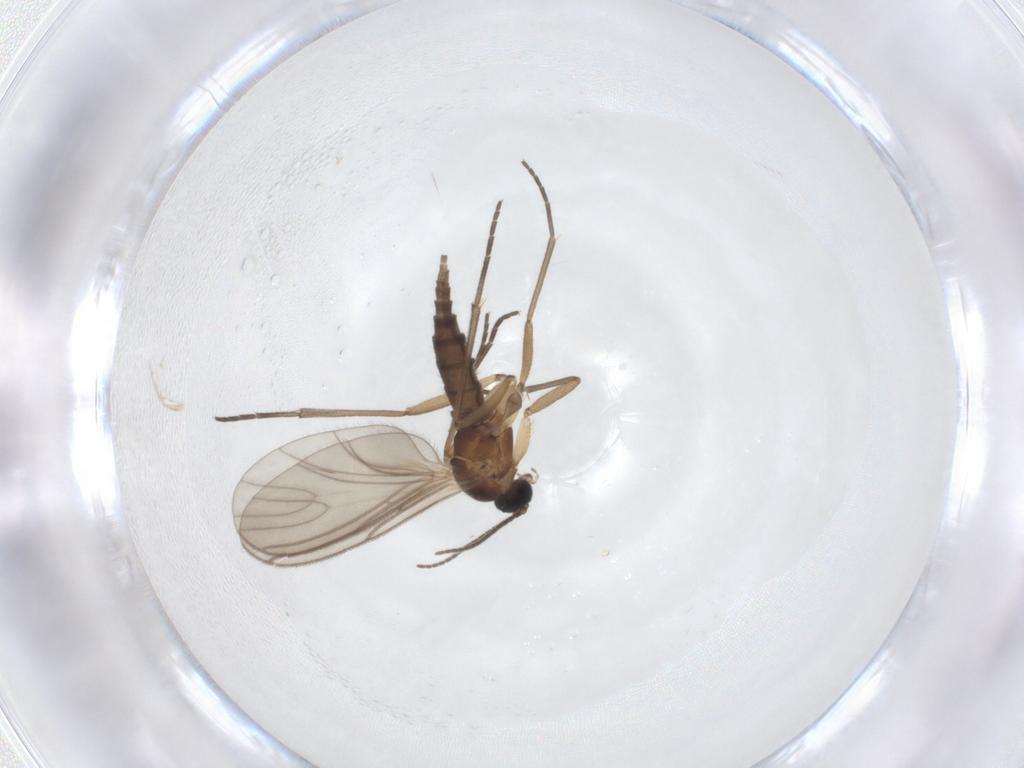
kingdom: Animalia
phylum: Arthropoda
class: Insecta
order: Diptera
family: Sciaridae
